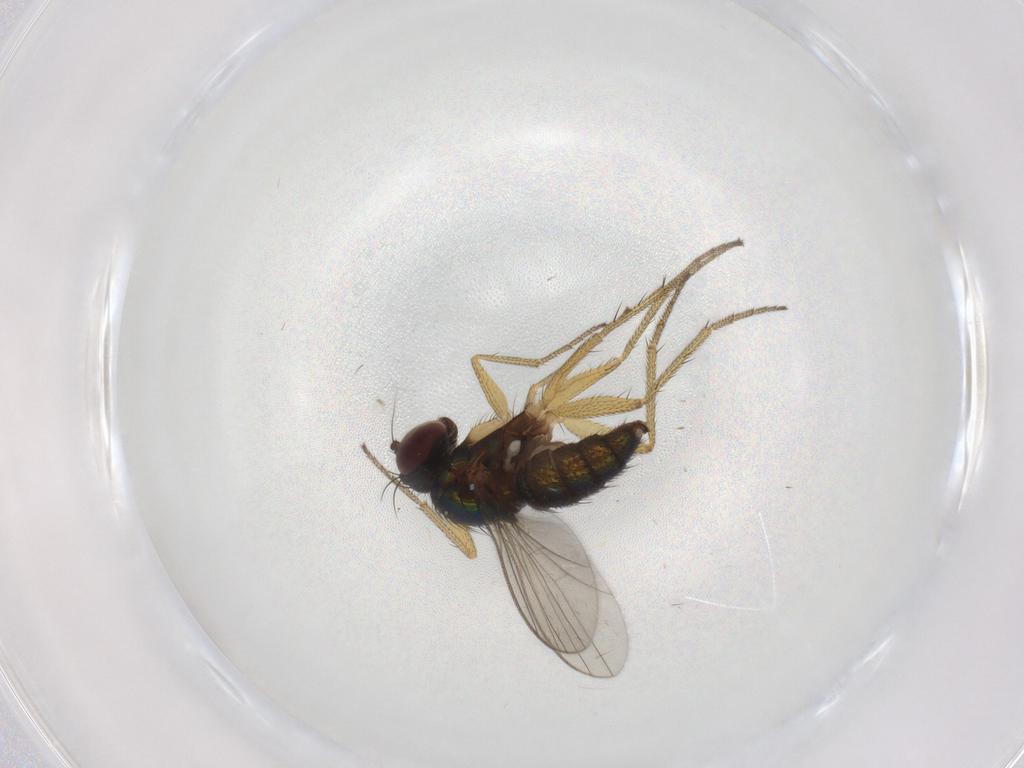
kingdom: Animalia
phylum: Arthropoda
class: Insecta
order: Diptera
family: Dolichopodidae
